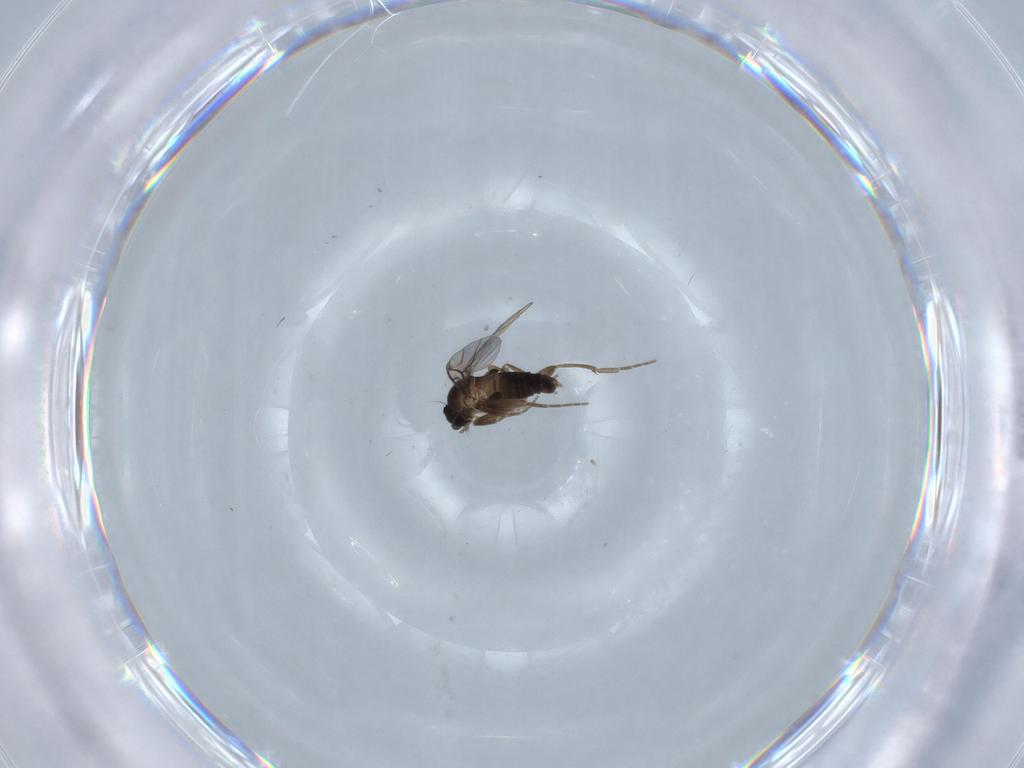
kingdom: Animalia
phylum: Arthropoda
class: Insecta
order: Diptera
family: Phoridae
